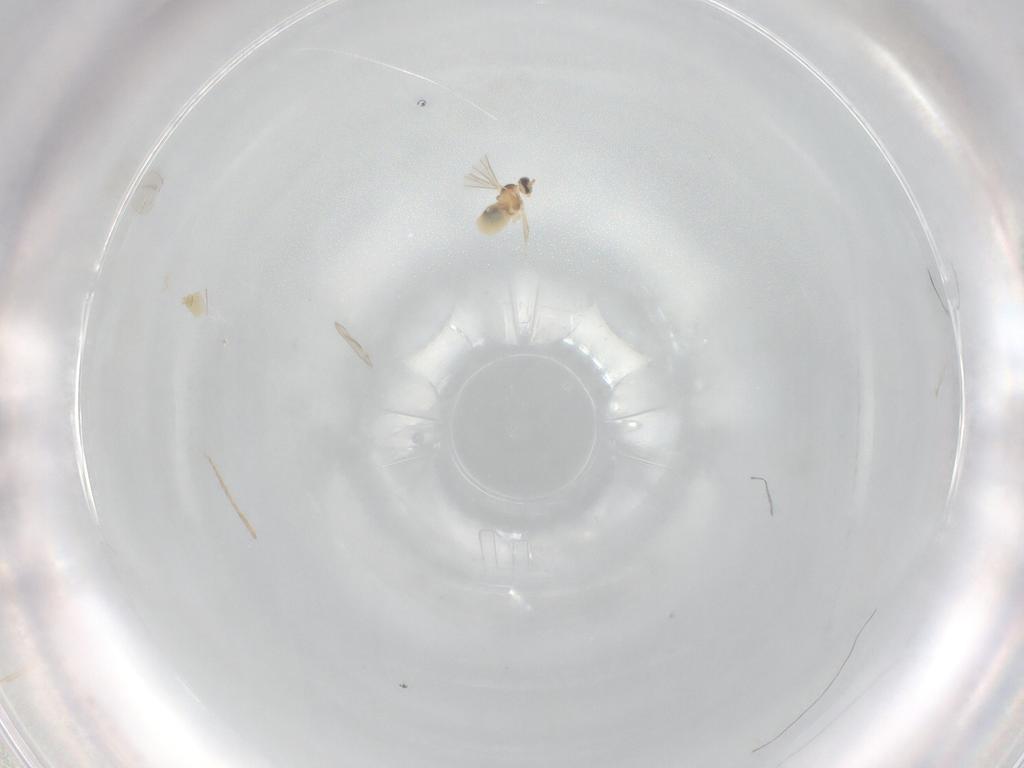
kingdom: Animalia
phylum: Arthropoda
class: Insecta
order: Diptera
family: Cecidomyiidae
